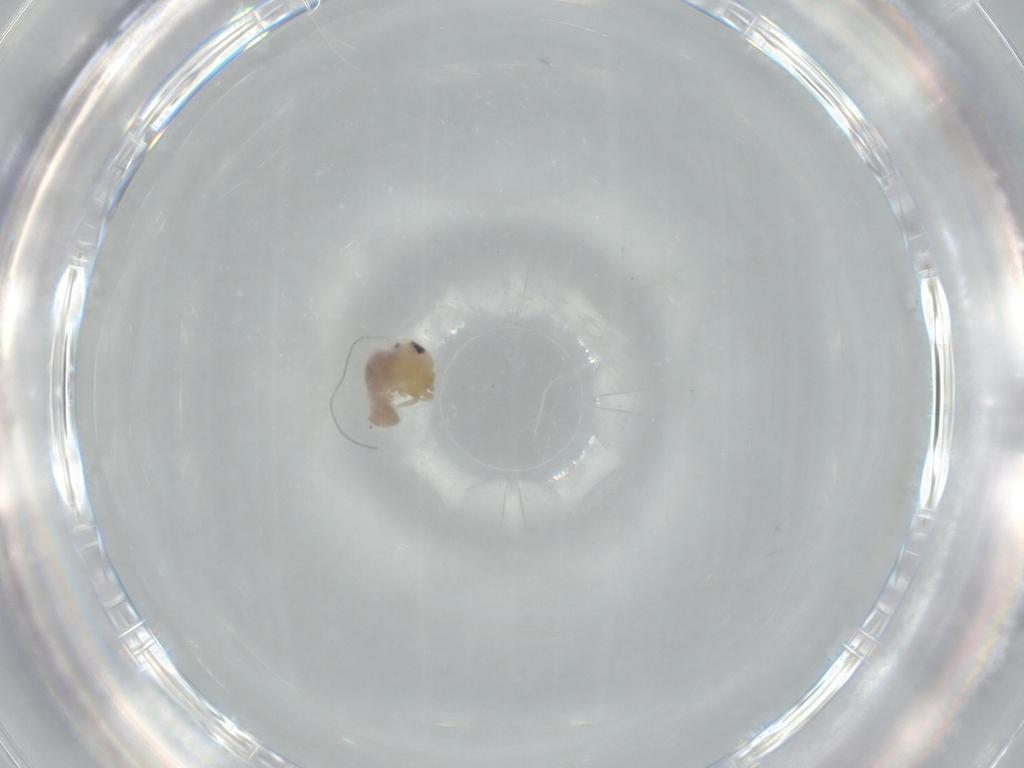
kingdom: Animalia
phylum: Arthropoda
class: Arachnida
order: Araneae
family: Pholcidae
